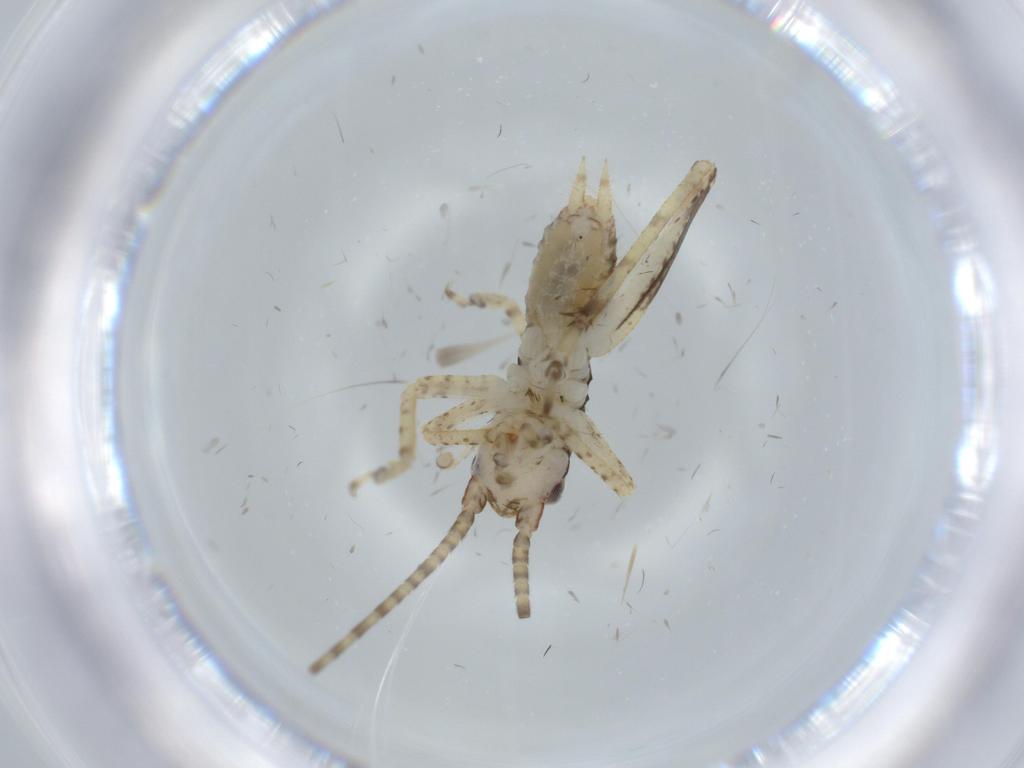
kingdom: Animalia
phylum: Arthropoda
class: Insecta
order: Orthoptera
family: Gryllidae
